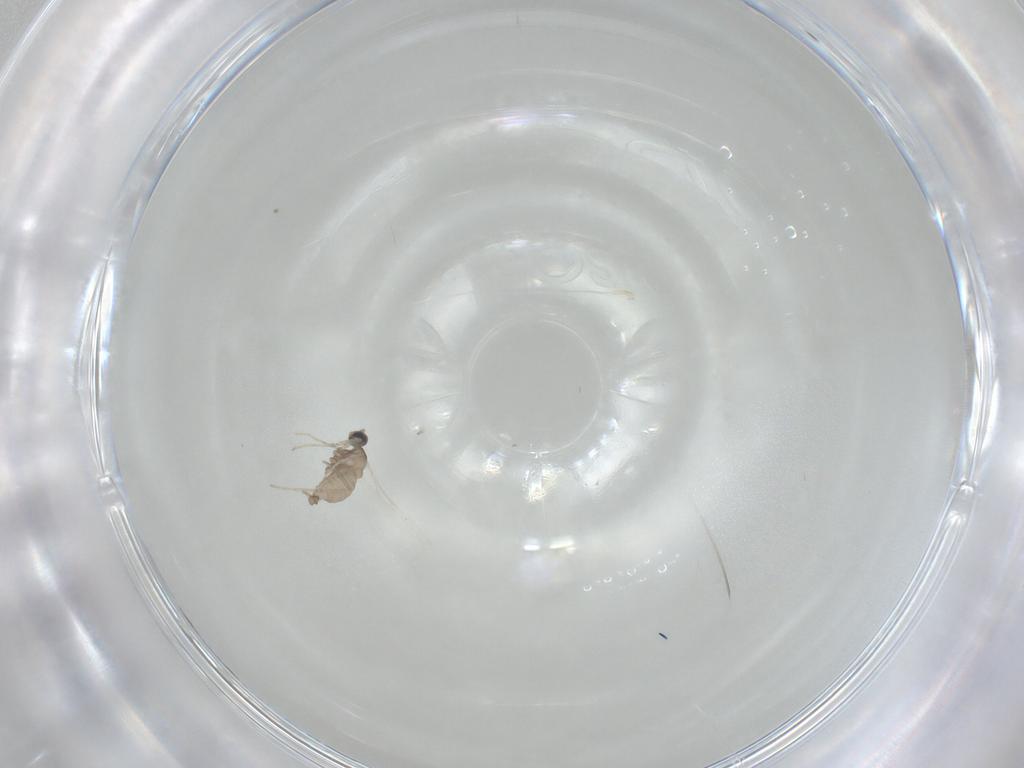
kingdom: Animalia
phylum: Arthropoda
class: Insecta
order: Diptera
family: Cecidomyiidae
